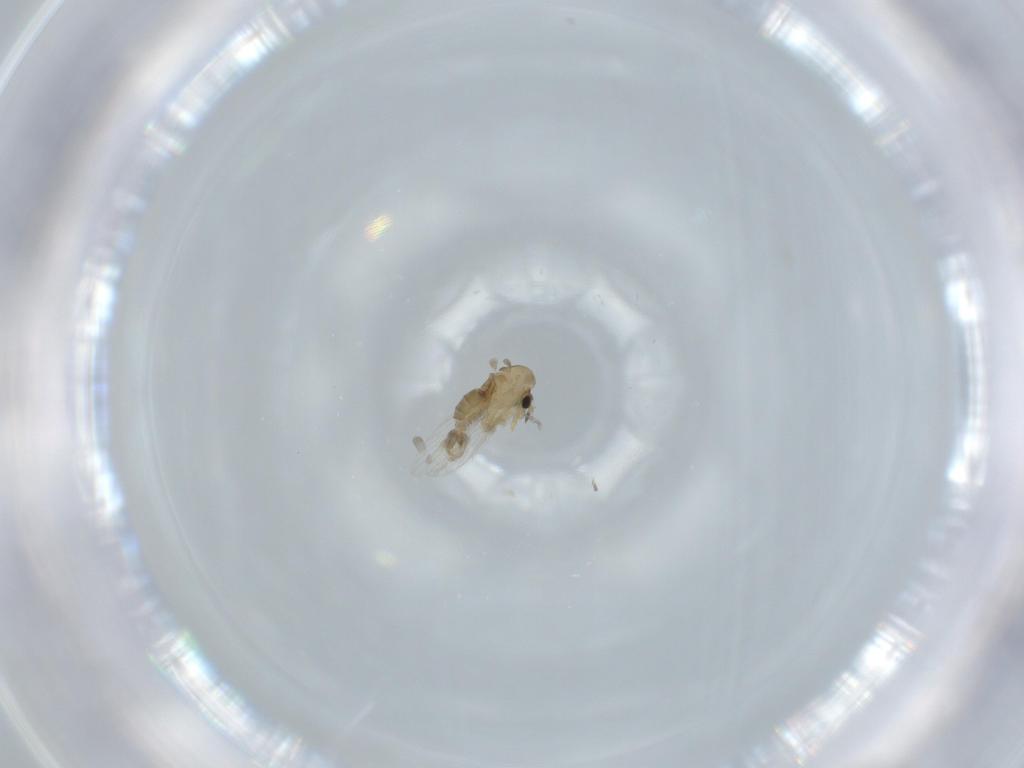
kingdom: Animalia
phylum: Arthropoda
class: Insecta
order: Diptera
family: Psychodidae
